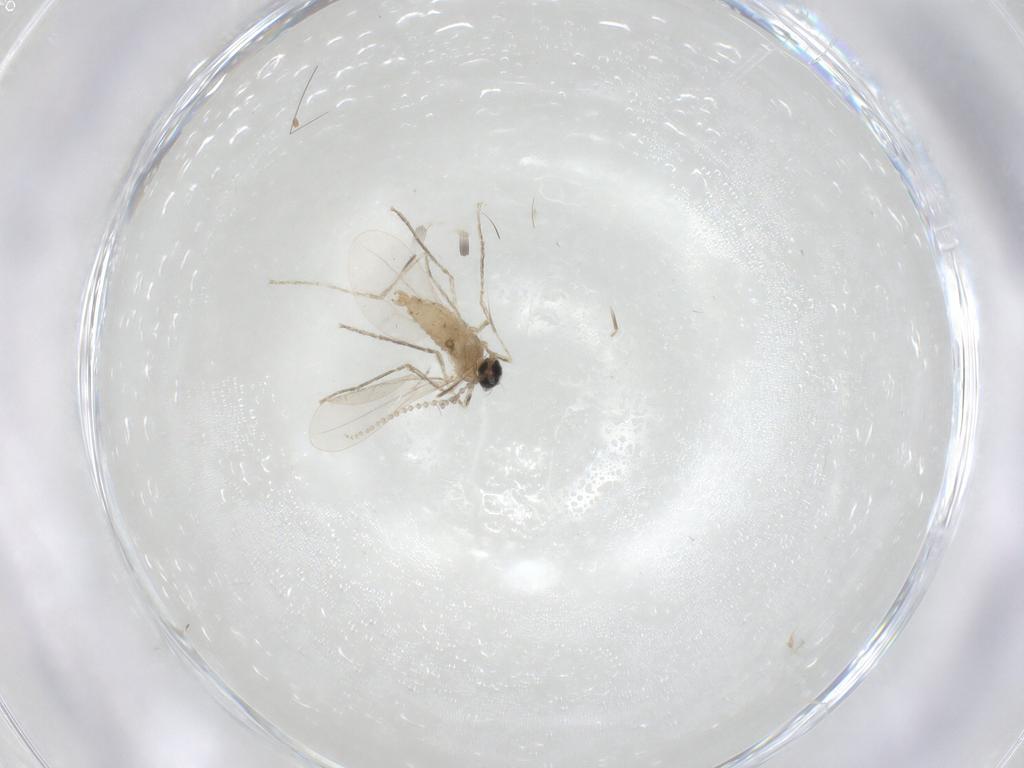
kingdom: Animalia
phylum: Arthropoda
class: Insecta
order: Diptera
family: Cecidomyiidae
